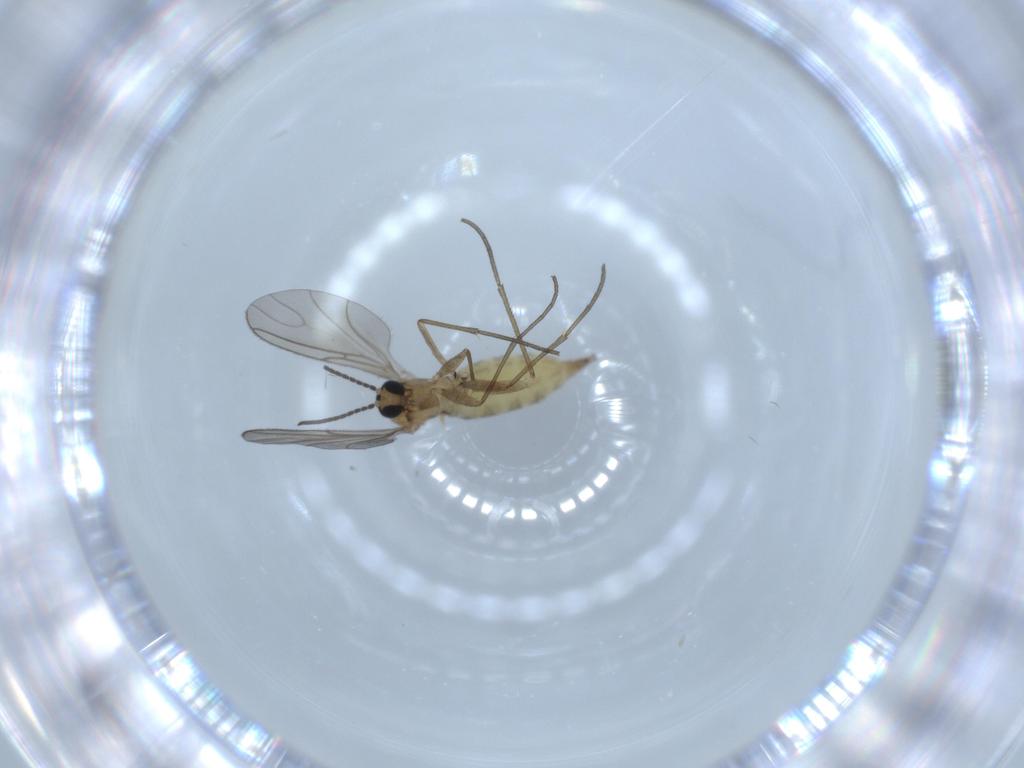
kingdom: Animalia
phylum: Arthropoda
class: Insecta
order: Diptera
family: Sciaridae
